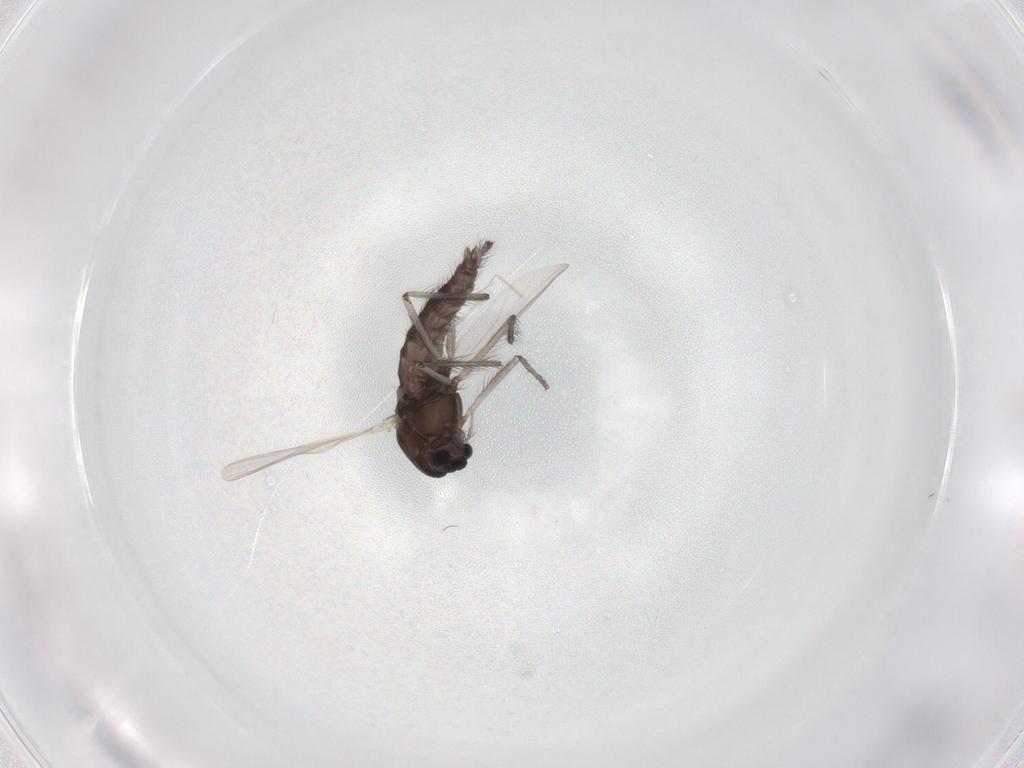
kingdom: Animalia
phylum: Arthropoda
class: Insecta
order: Diptera
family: Chironomidae
